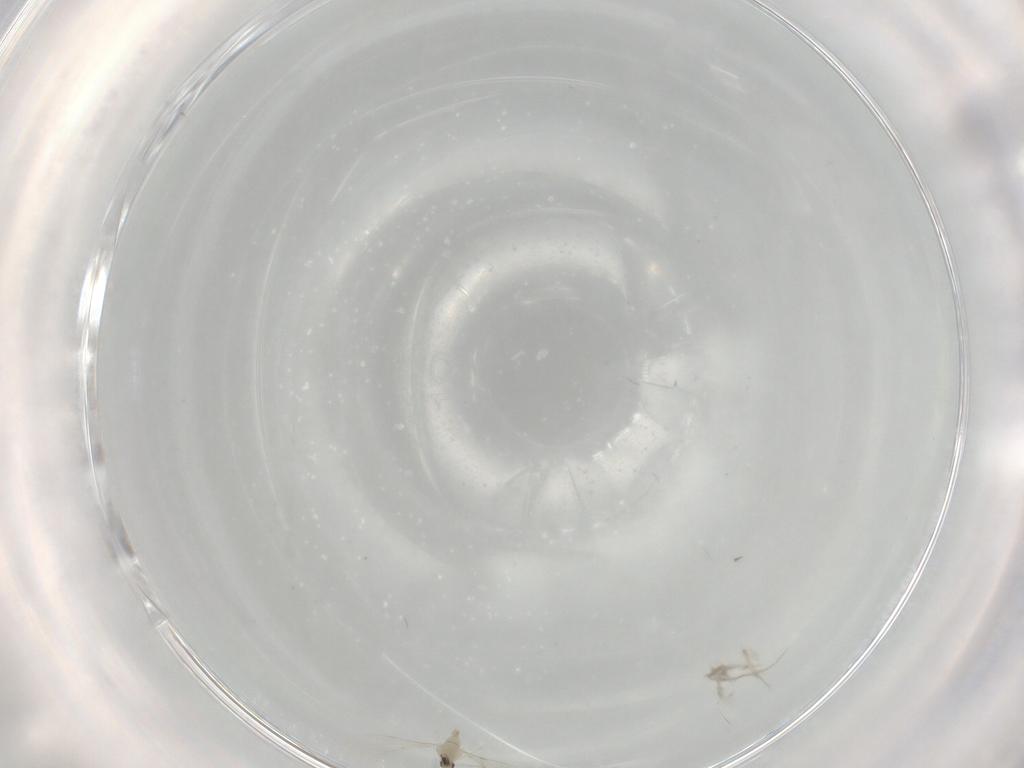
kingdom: Animalia
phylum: Arthropoda
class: Insecta
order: Diptera
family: Cecidomyiidae
